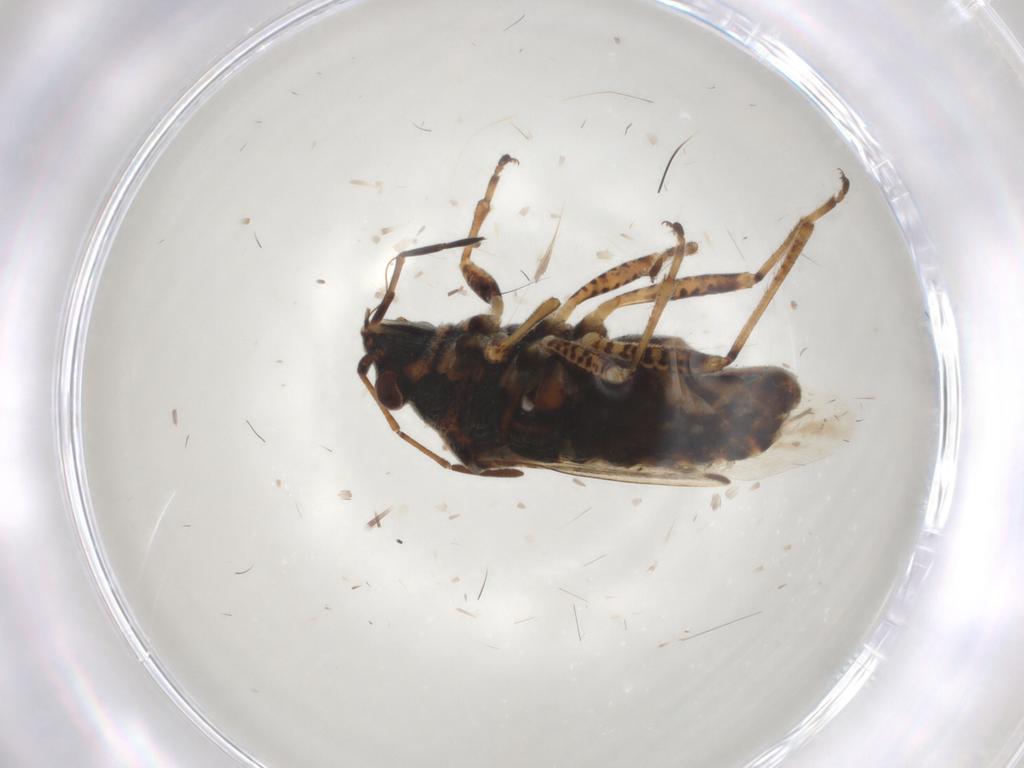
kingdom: Animalia
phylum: Arthropoda
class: Insecta
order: Hemiptera
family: Lygaeidae
